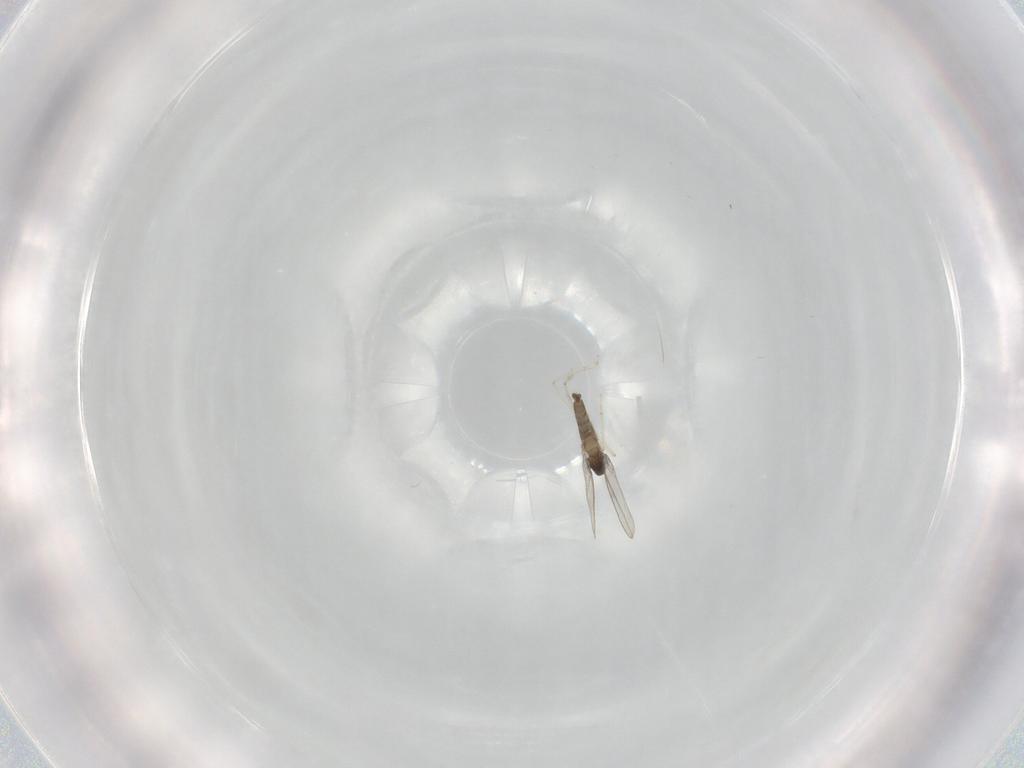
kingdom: Animalia
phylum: Arthropoda
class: Insecta
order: Diptera
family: Cecidomyiidae
